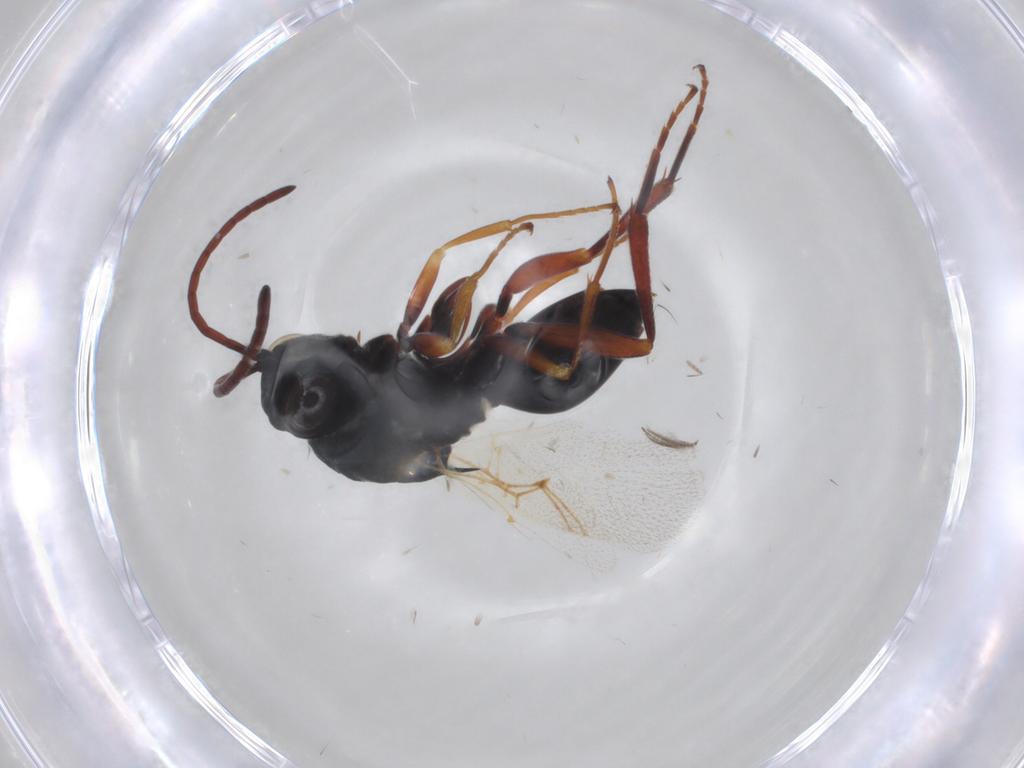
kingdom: Animalia
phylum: Arthropoda
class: Insecta
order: Hymenoptera
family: Figitidae
